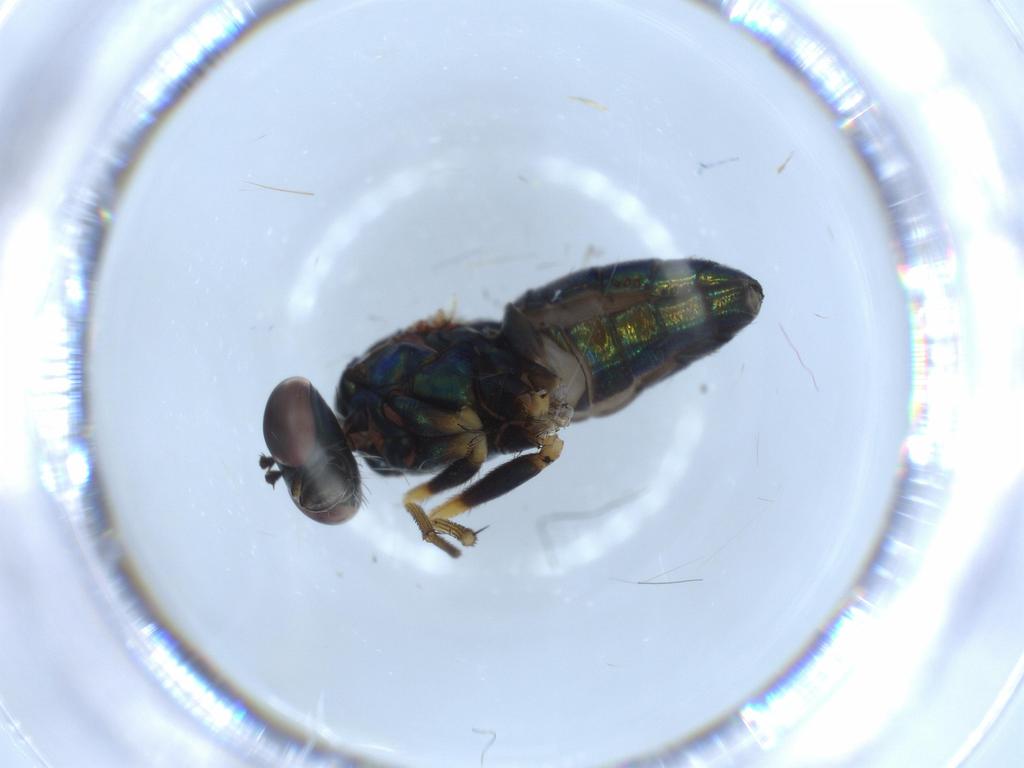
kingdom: Animalia
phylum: Arthropoda
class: Insecta
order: Diptera
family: Dolichopodidae
